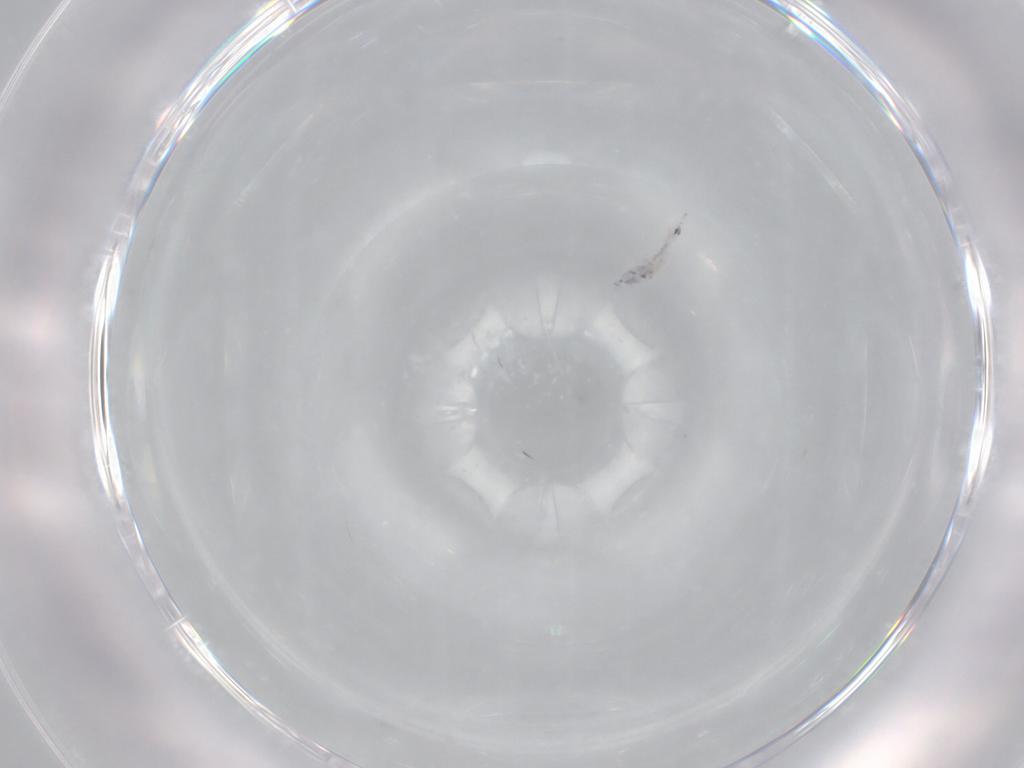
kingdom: Animalia
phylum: Arthropoda
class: Collembola
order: Entomobryomorpha
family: Entomobryidae
